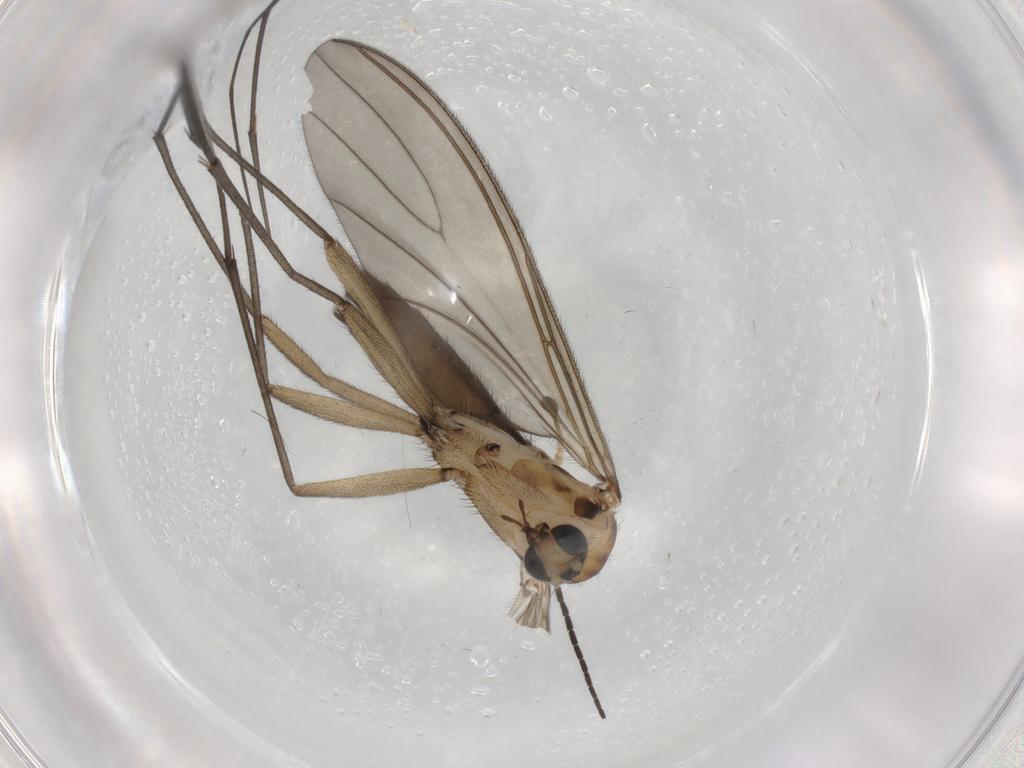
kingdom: Animalia
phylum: Arthropoda
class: Insecta
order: Diptera
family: Sciaridae
